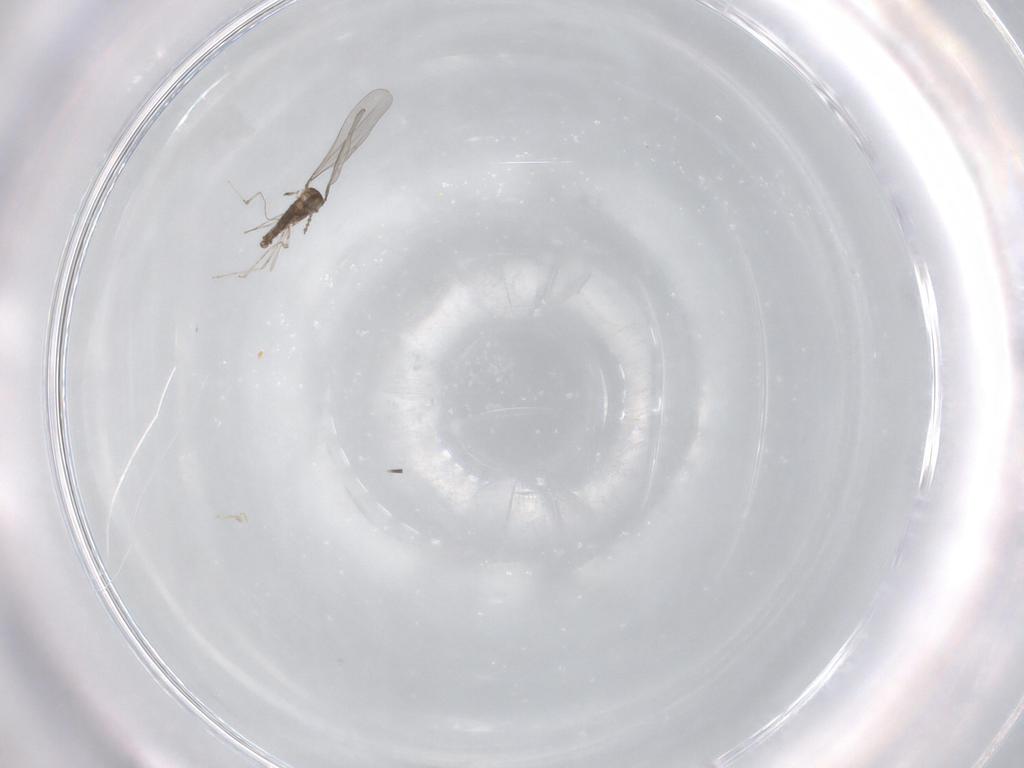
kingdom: Animalia
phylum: Arthropoda
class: Insecta
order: Diptera
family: Cecidomyiidae
